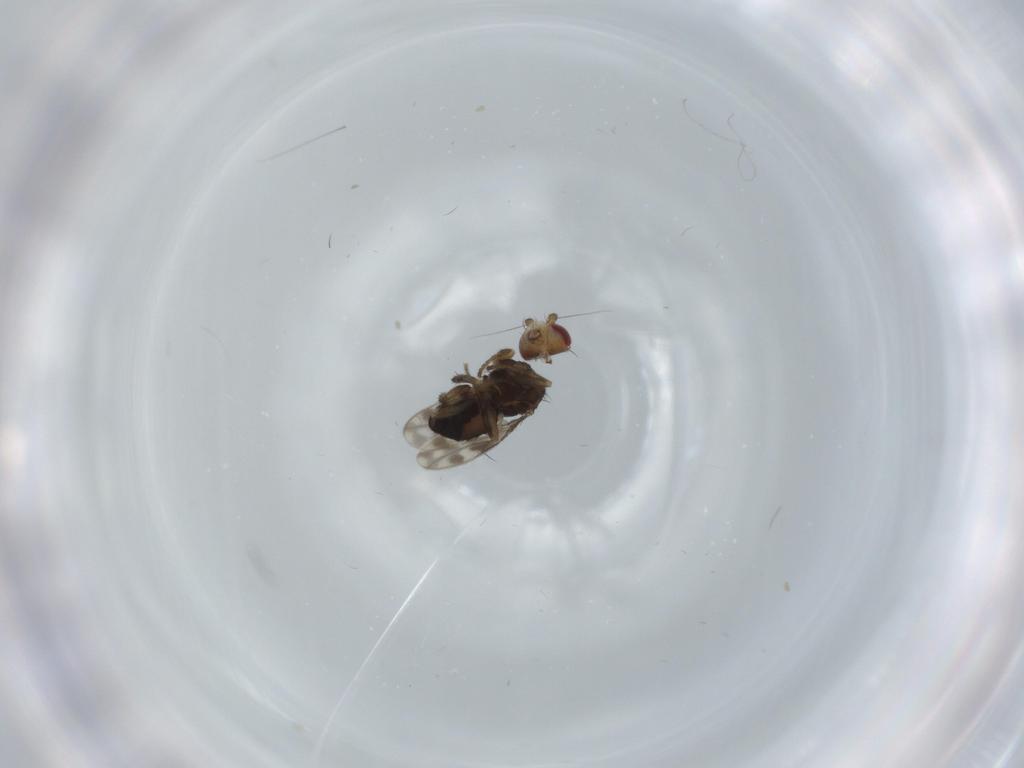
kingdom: Animalia
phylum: Arthropoda
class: Insecta
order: Diptera
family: Sphaeroceridae
